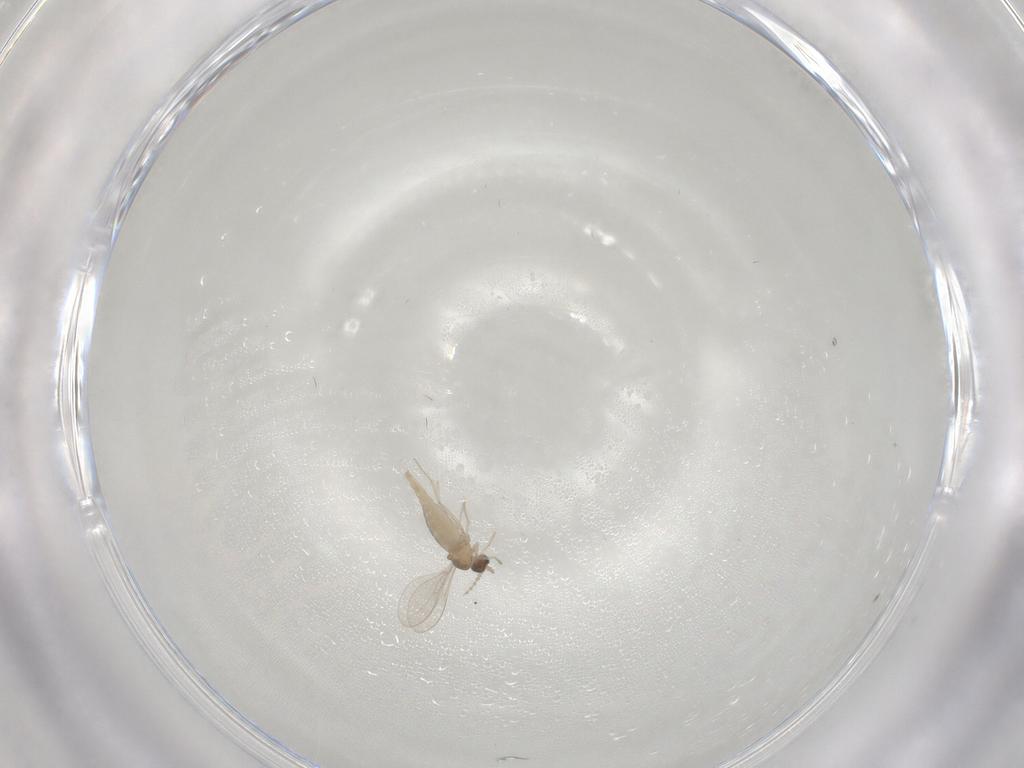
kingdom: Animalia
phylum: Arthropoda
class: Insecta
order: Diptera
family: Cecidomyiidae
